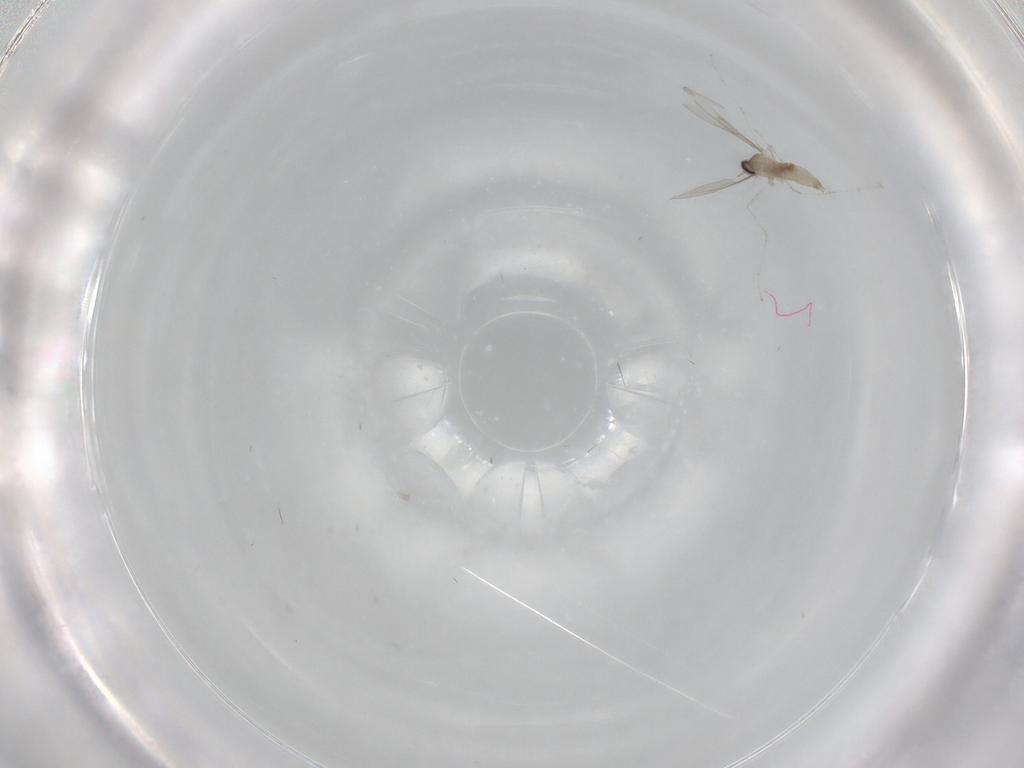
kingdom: Animalia
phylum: Arthropoda
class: Insecta
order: Diptera
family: Cecidomyiidae
